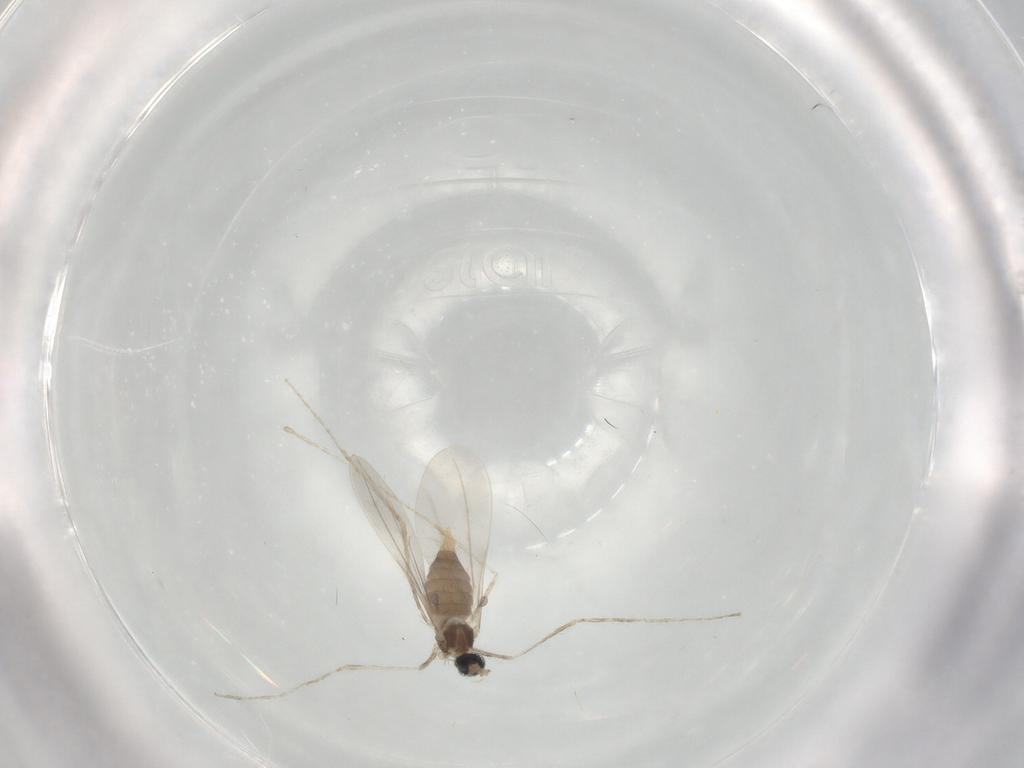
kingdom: Animalia
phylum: Arthropoda
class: Insecta
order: Diptera
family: Cecidomyiidae
